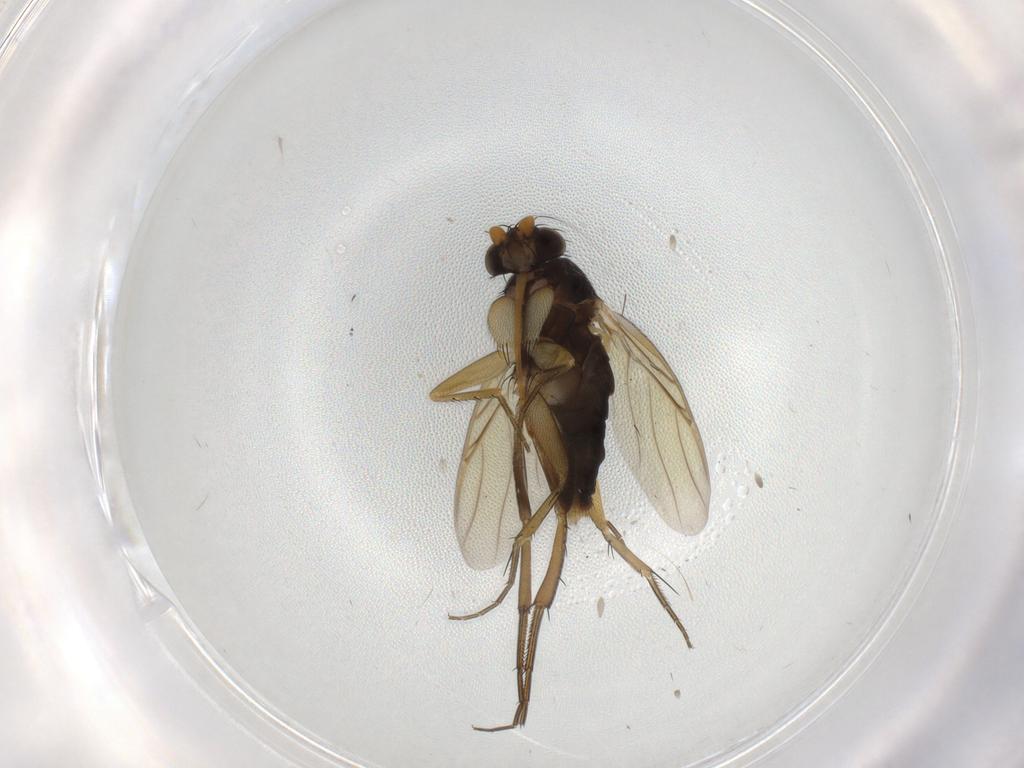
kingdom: Animalia
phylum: Arthropoda
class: Insecta
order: Diptera
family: Phoridae
